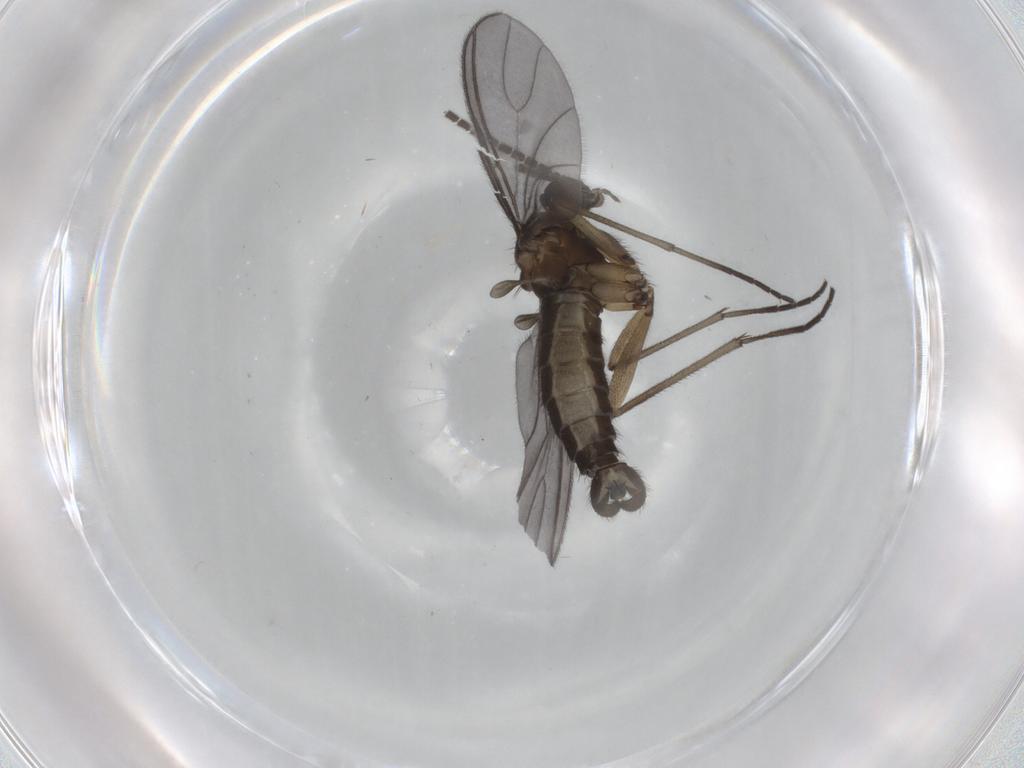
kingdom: Animalia
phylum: Arthropoda
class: Insecta
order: Diptera
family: Sciaridae
